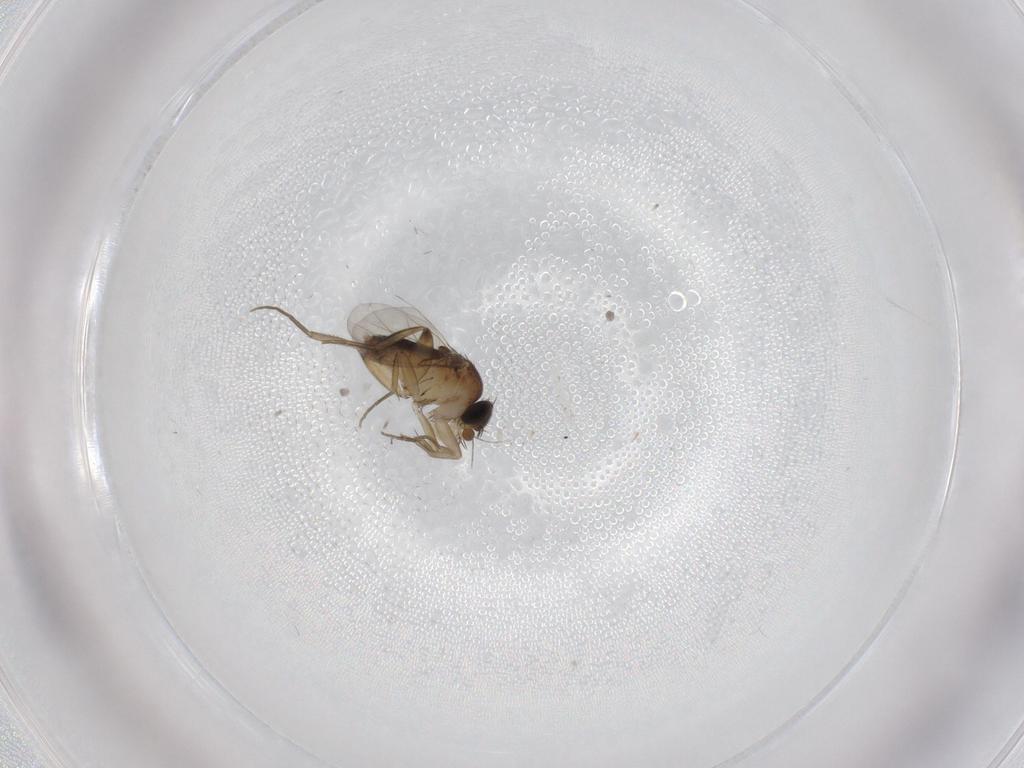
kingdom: Animalia
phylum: Arthropoda
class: Insecta
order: Diptera
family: Phoridae
